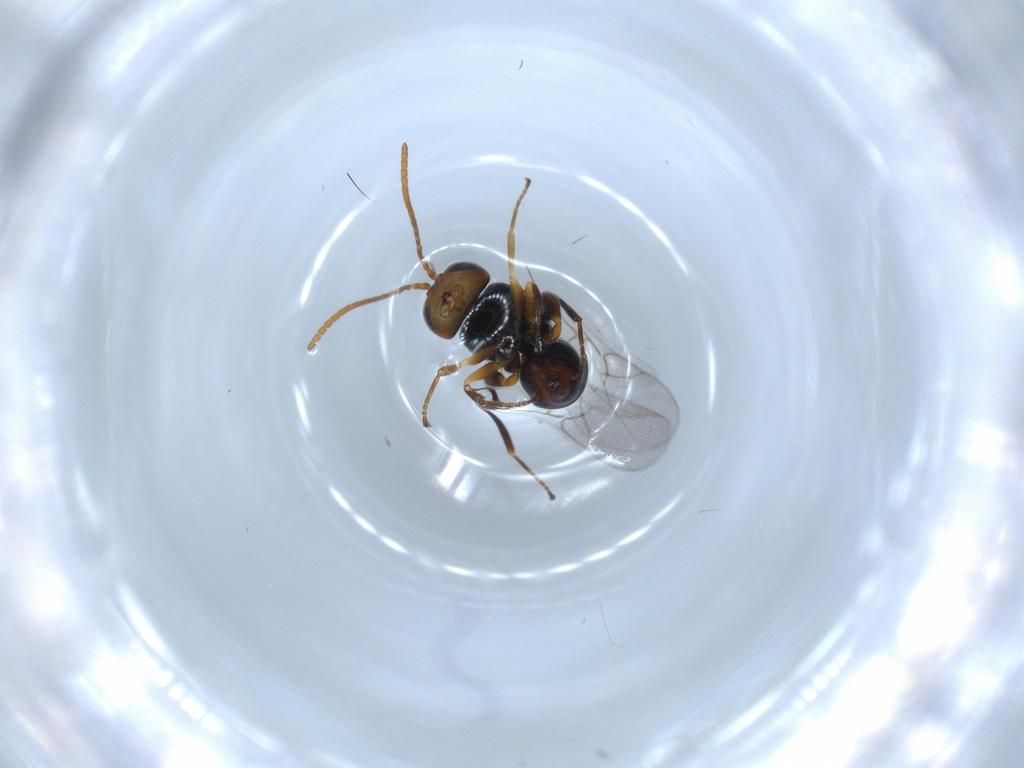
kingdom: Animalia
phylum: Arthropoda
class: Insecta
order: Hymenoptera
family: Cynipidae
